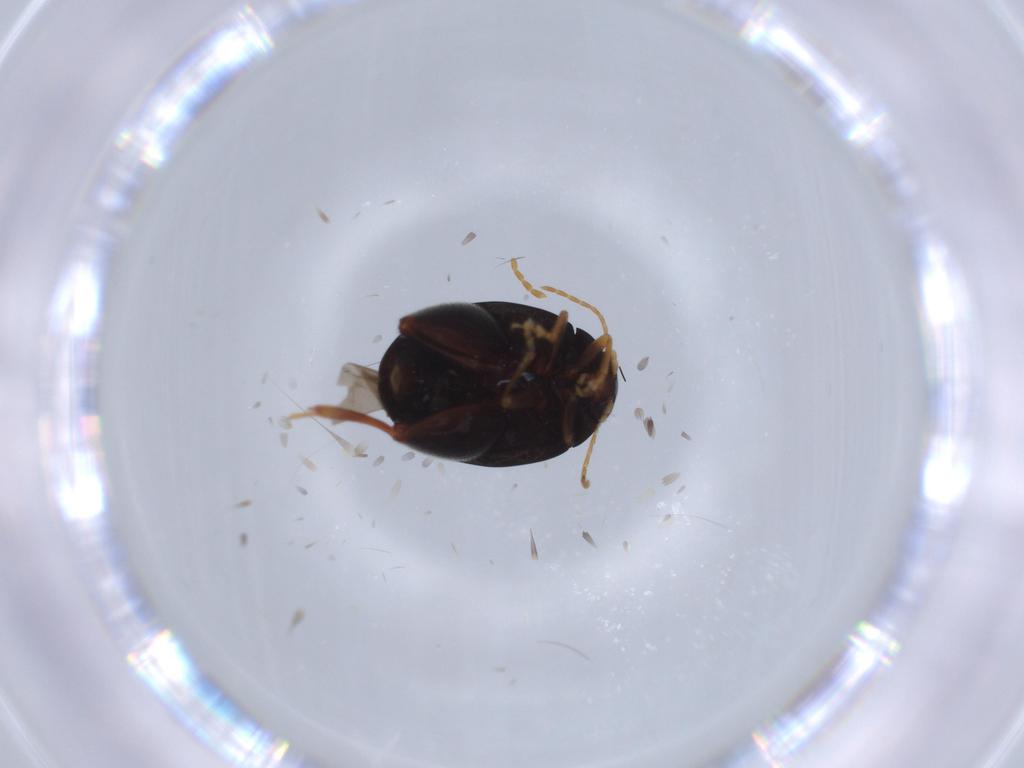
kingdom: Animalia
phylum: Arthropoda
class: Insecta
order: Coleoptera
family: Chrysomelidae
